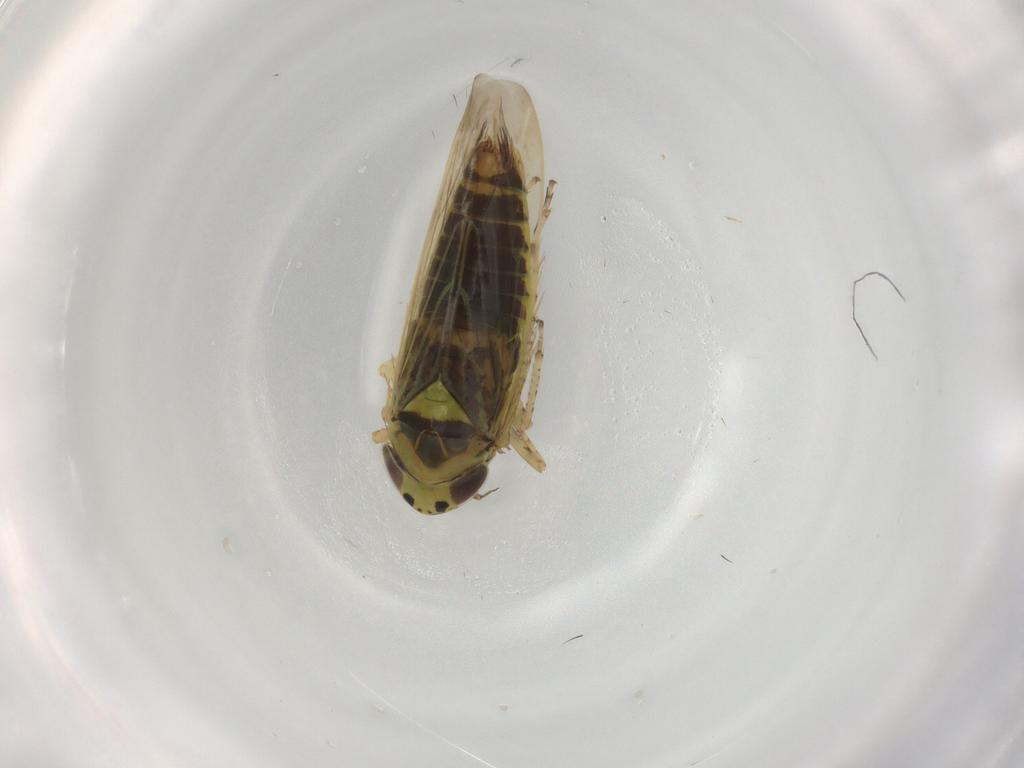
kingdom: Animalia
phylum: Arthropoda
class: Insecta
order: Hemiptera
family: Cicadellidae
